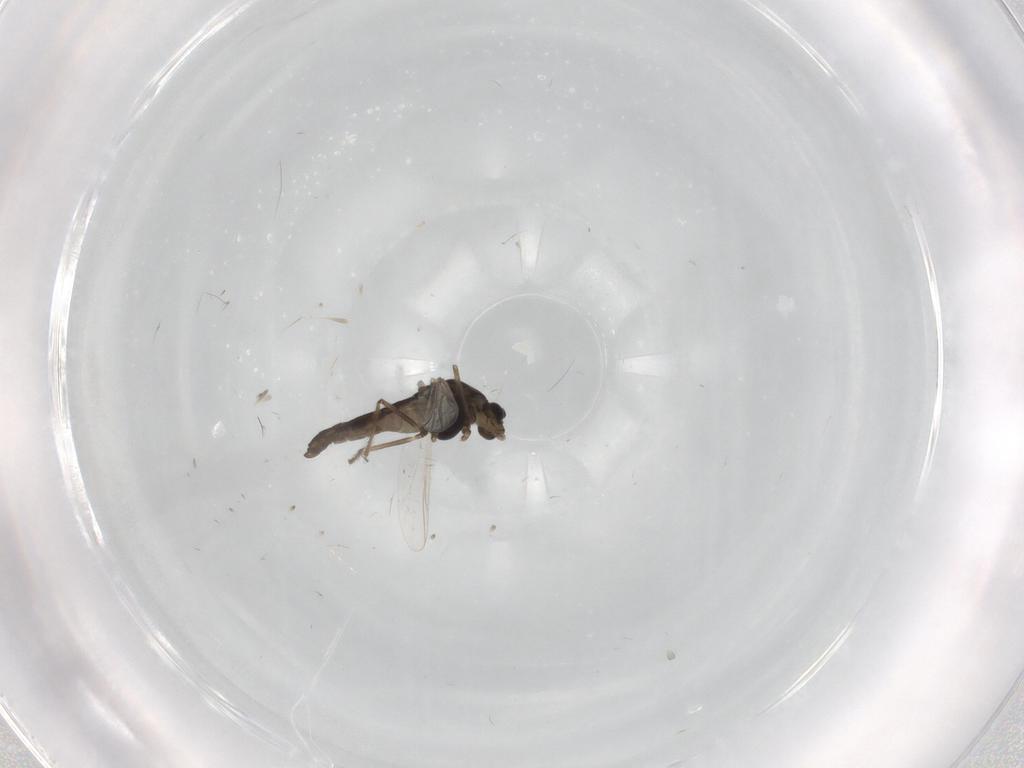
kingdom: Animalia
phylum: Arthropoda
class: Insecta
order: Diptera
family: Chironomidae
